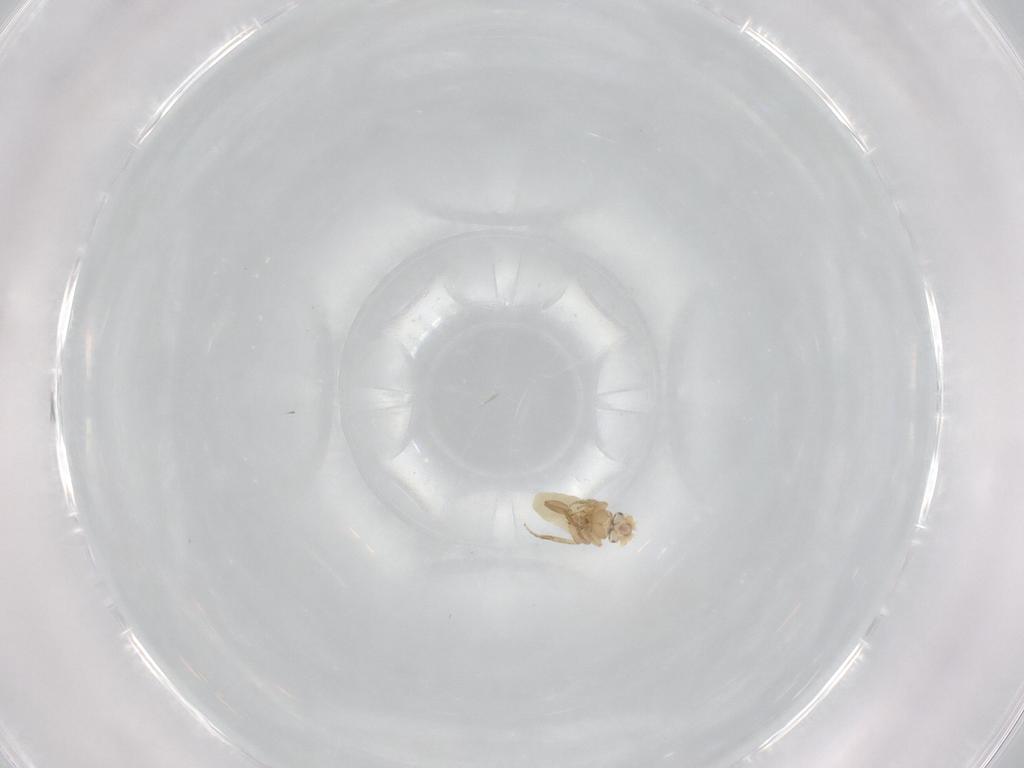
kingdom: Animalia
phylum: Arthropoda
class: Insecta
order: Diptera
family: Phoridae
